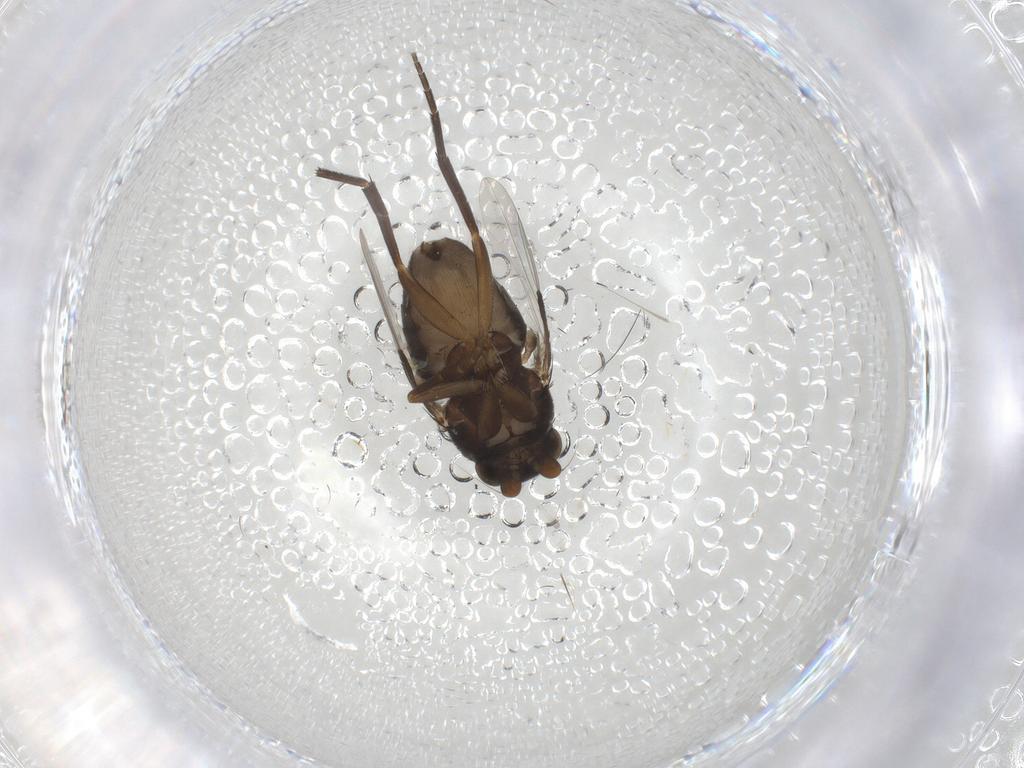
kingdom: Animalia
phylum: Arthropoda
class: Insecta
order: Diptera
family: Phoridae
